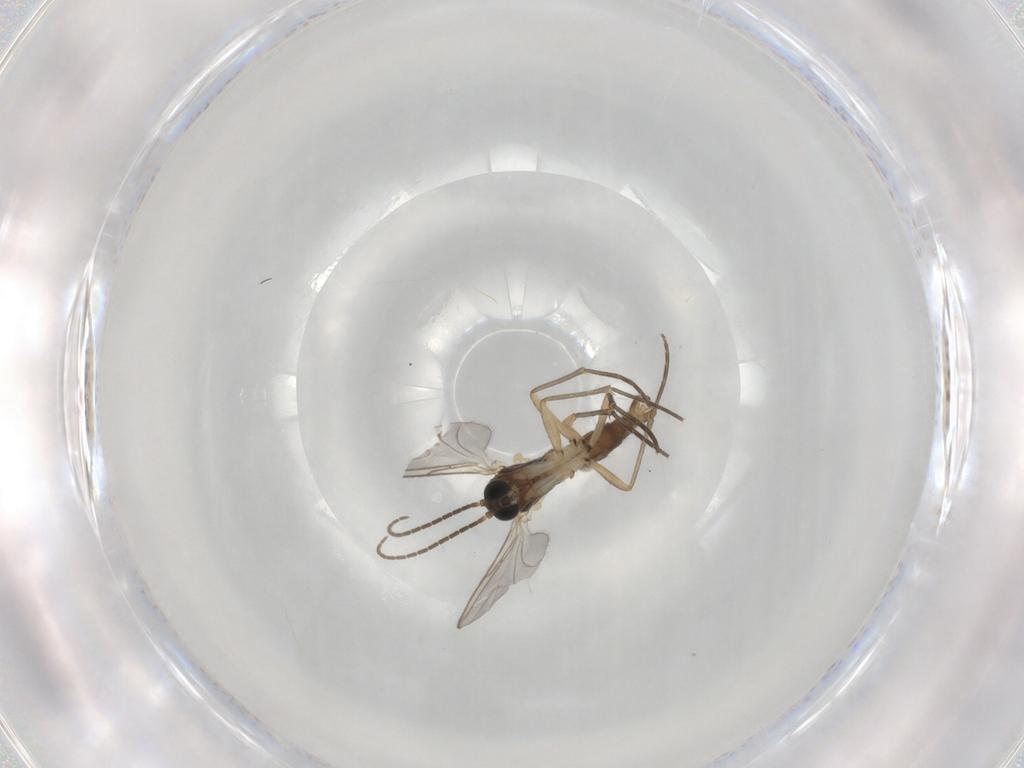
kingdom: Animalia
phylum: Arthropoda
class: Insecta
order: Diptera
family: Sciaridae
